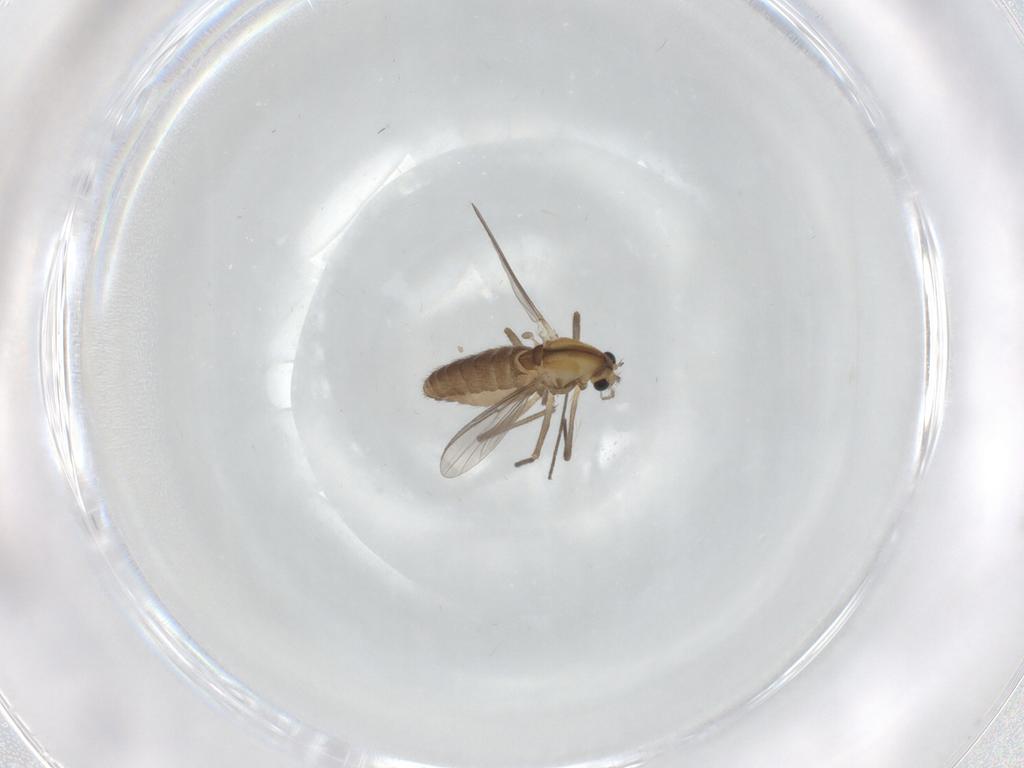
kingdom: Animalia
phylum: Arthropoda
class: Insecta
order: Diptera
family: Chironomidae
